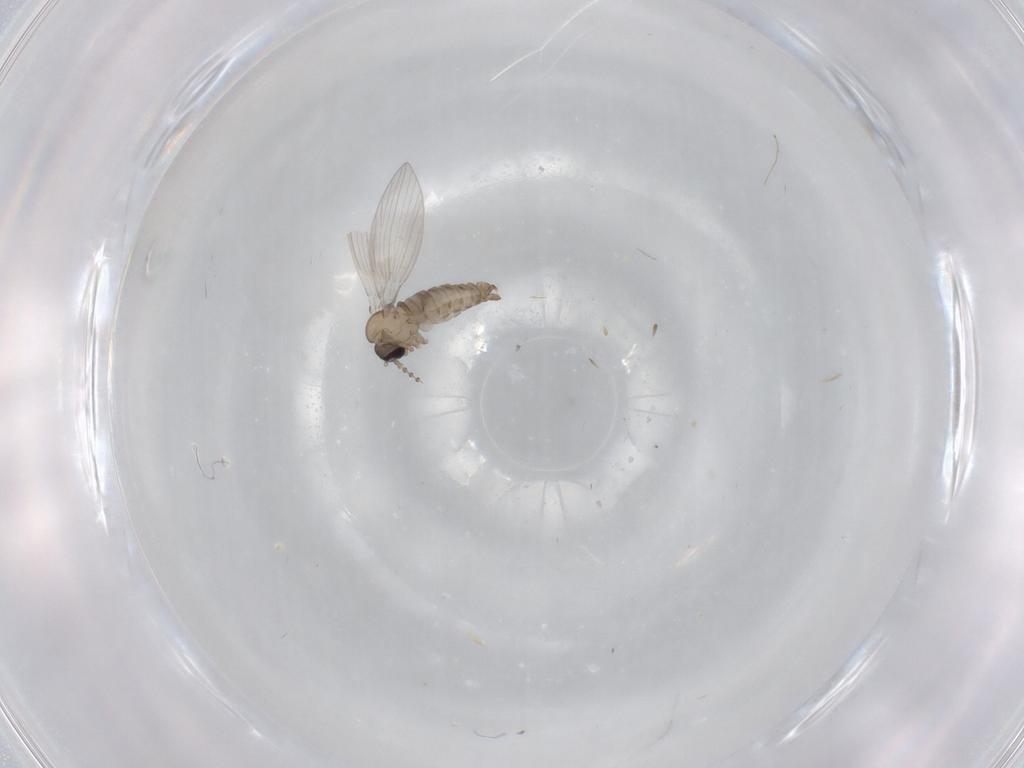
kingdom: Animalia
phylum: Arthropoda
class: Insecta
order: Diptera
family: Psychodidae
